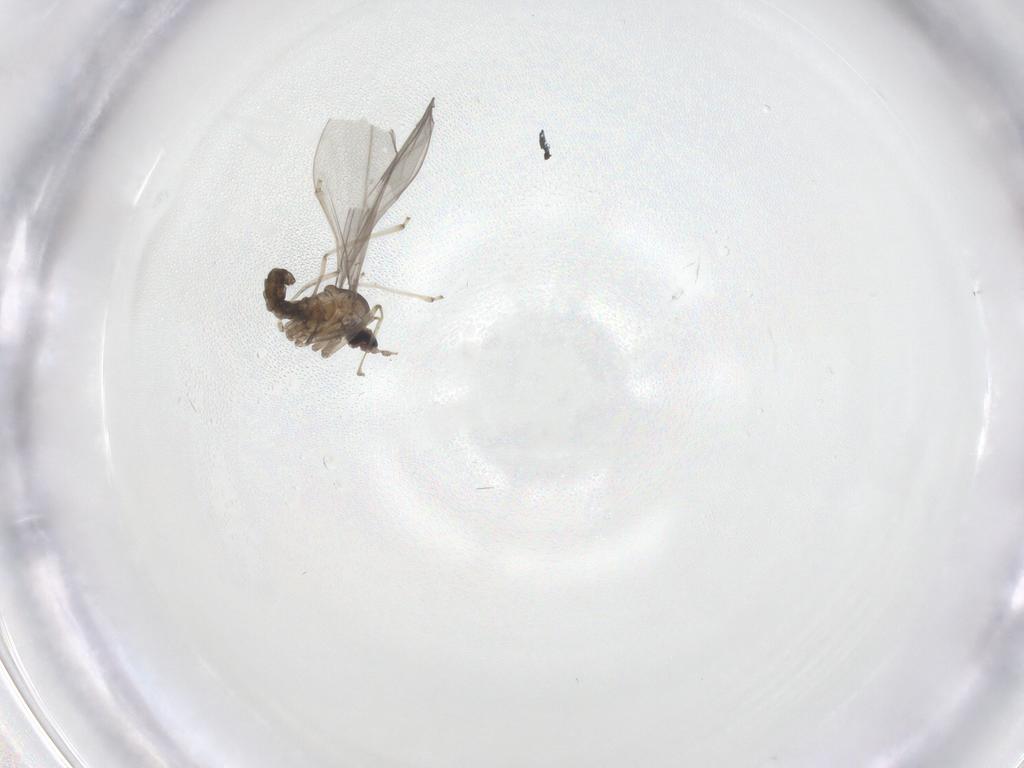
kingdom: Animalia
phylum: Arthropoda
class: Insecta
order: Diptera
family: Cecidomyiidae
